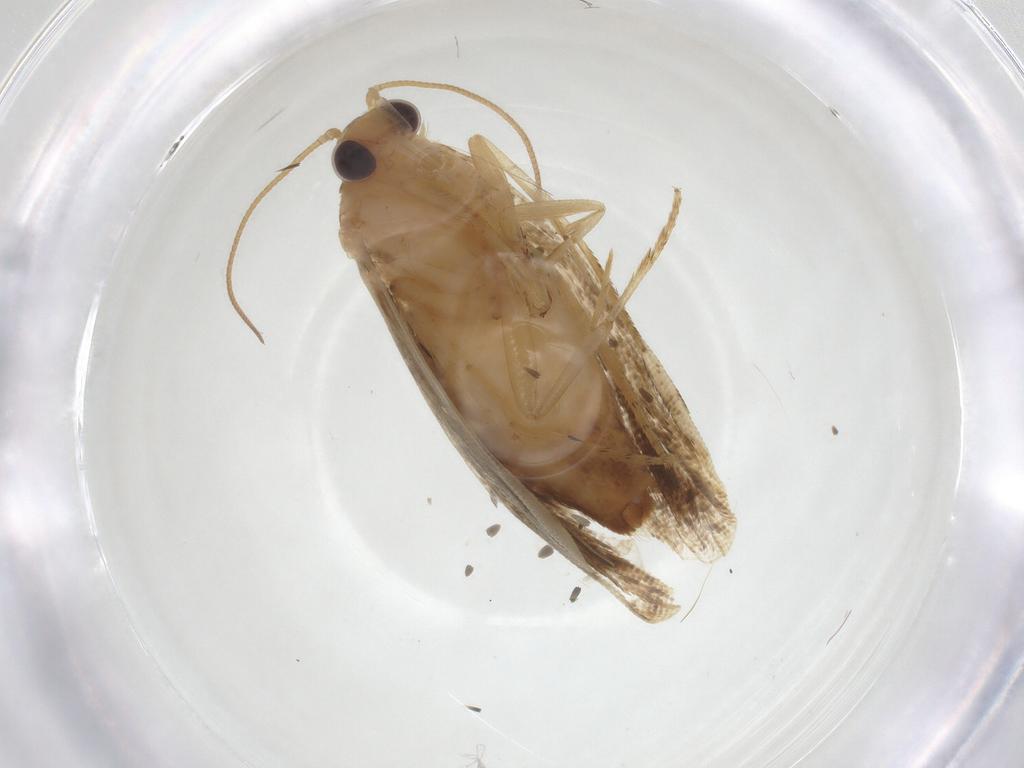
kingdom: Animalia
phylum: Arthropoda
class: Insecta
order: Lepidoptera
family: Tortricidae
